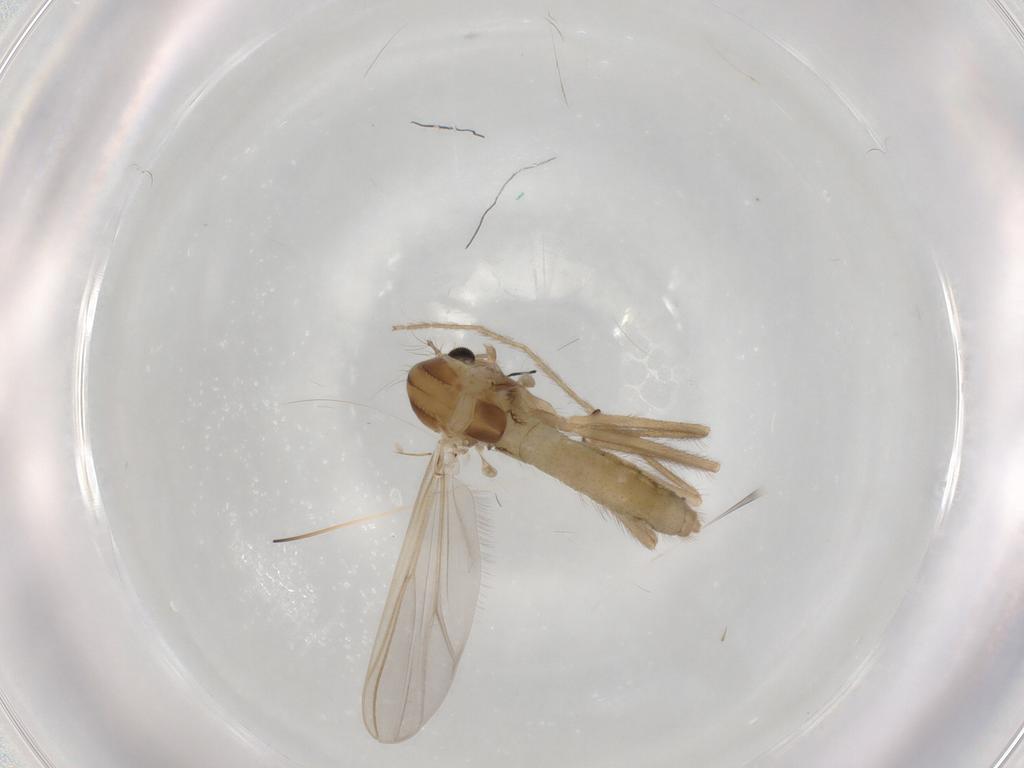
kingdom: Animalia
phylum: Arthropoda
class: Insecta
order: Diptera
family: Chironomidae
